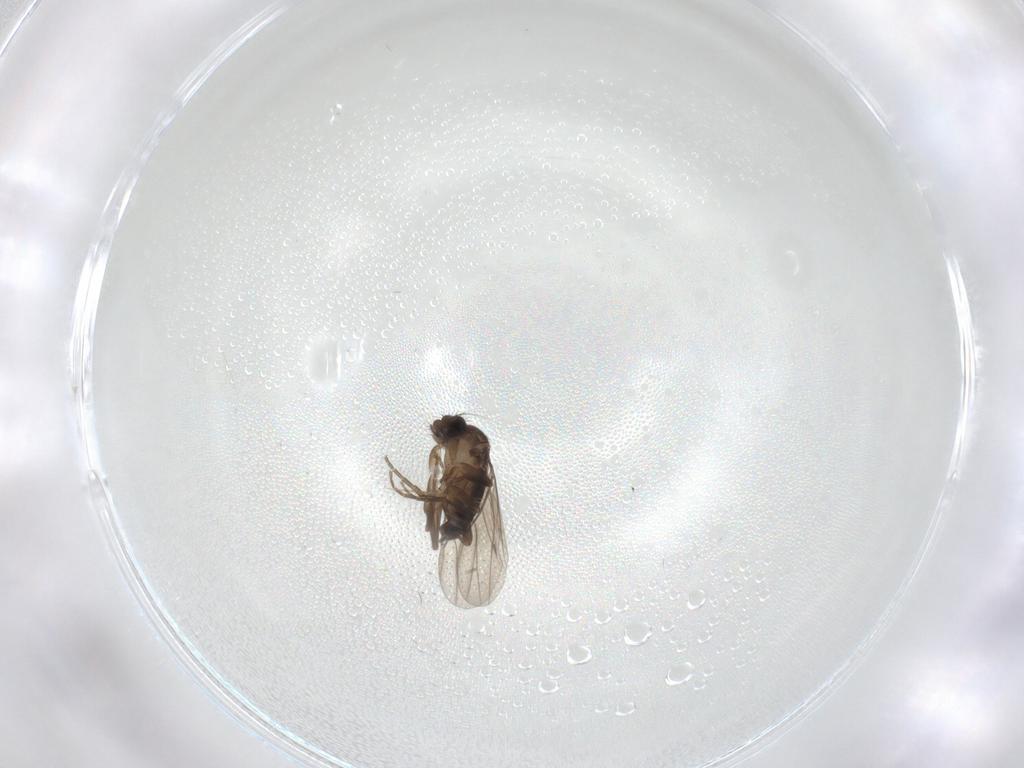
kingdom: Animalia
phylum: Arthropoda
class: Insecta
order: Diptera
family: Phoridae
